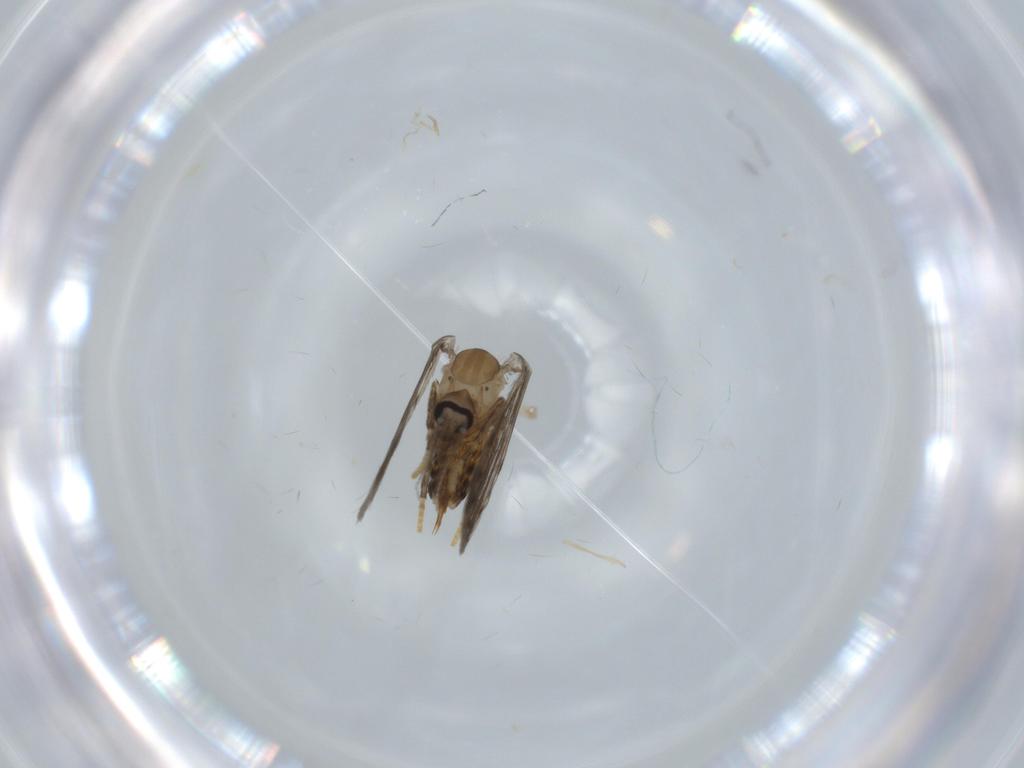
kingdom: Animalia
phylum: Arthropoda
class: Insecta
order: Diptera
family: Psychodidae
